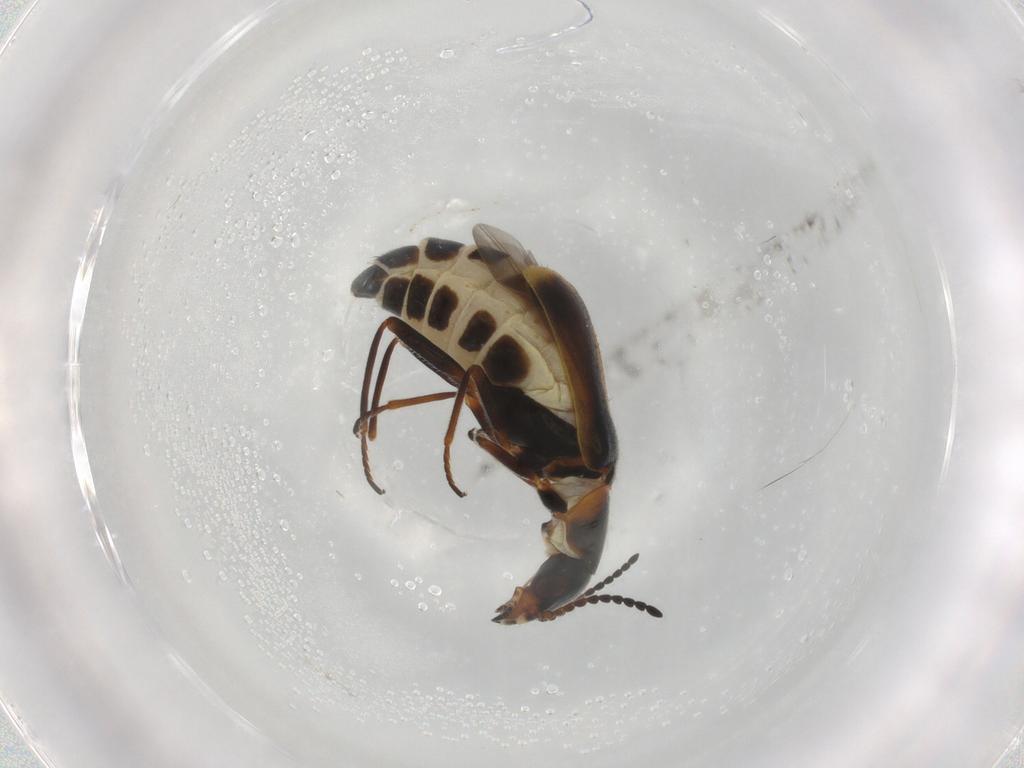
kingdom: Animalia
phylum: Arthropoda
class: Insecta
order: Coleoptera
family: Melyridae
